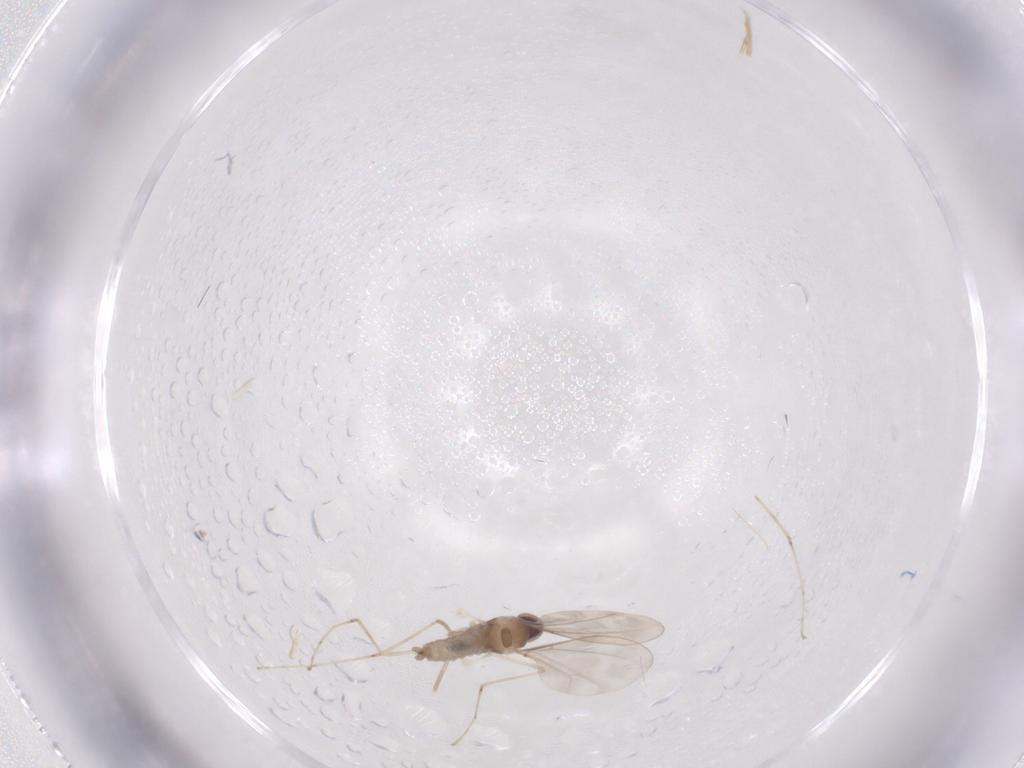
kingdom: Animalia
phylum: Arthropoda
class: Insecta
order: Diptera
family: Cecidomyiidae
